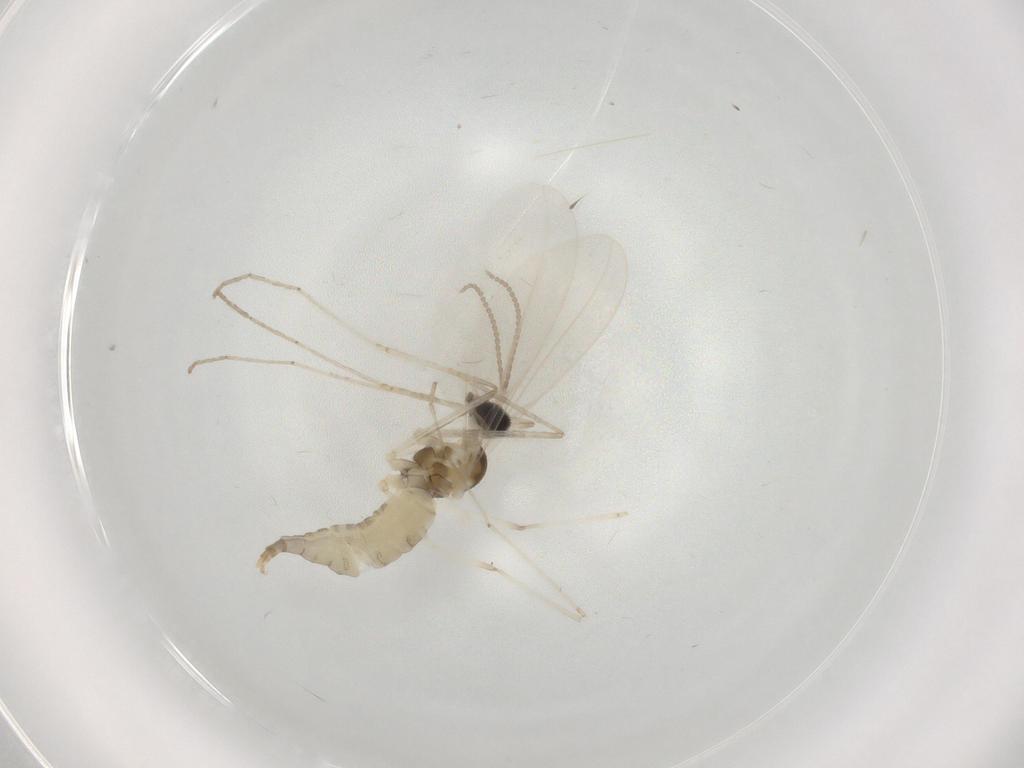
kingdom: Animalia
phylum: Arthropoda
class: Insecta
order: Diptera
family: Cecidomyiidae
